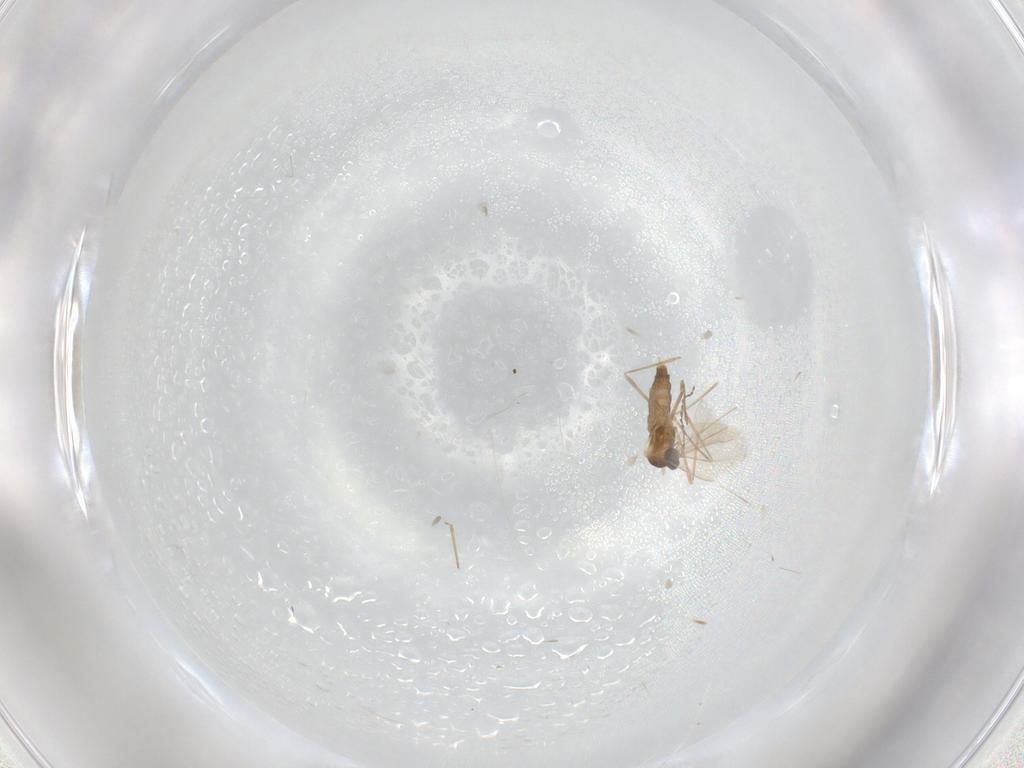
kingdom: Animalia
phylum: Arthropoda
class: Insecta
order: Diptera
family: Cecidomyiidae
